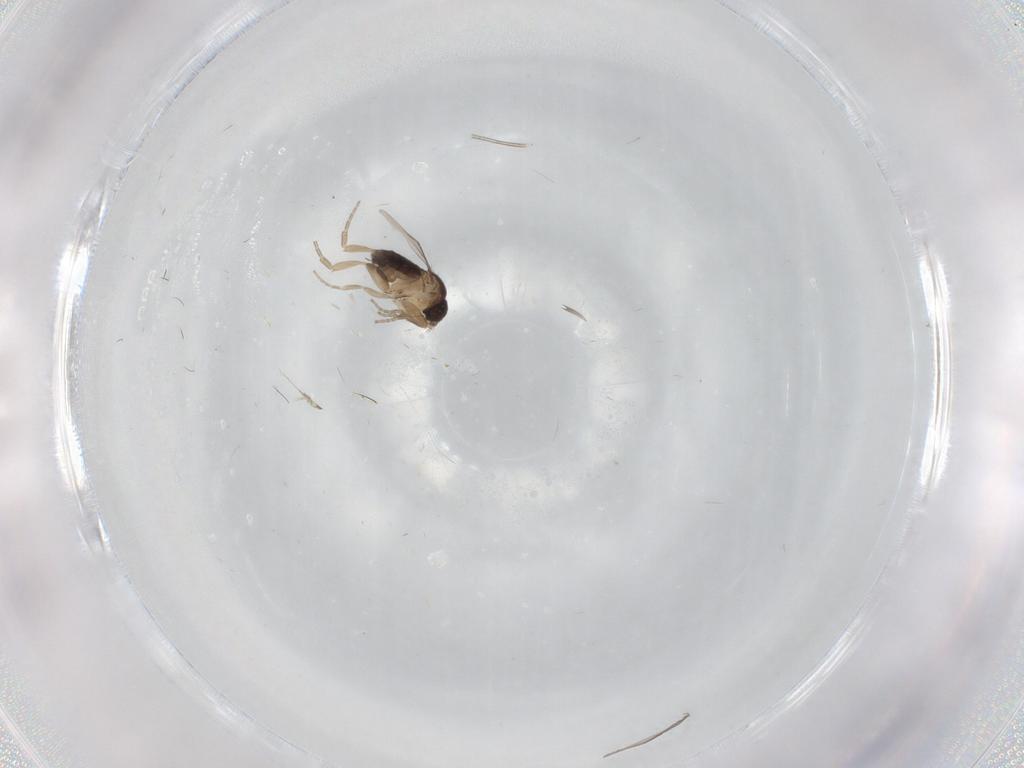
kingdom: Animalia
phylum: Arthropoda
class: Insecta
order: Diptera
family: Phoridae
